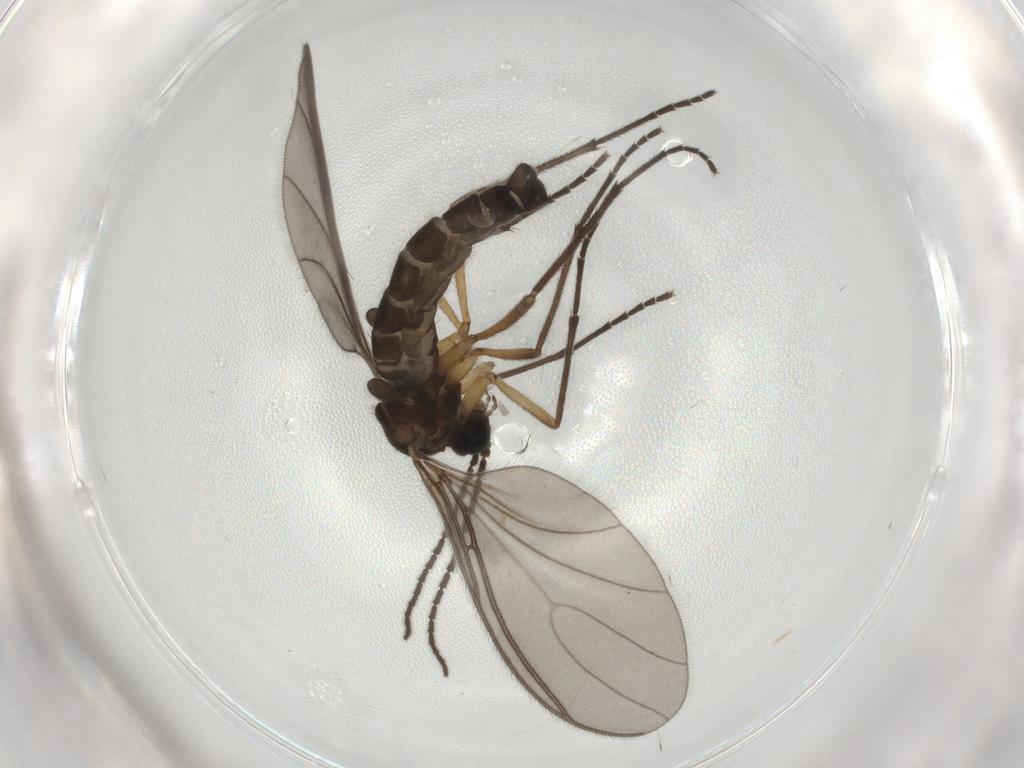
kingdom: Animalia
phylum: Arthropoda
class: Insecta
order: Diptera
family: Sciaridae
